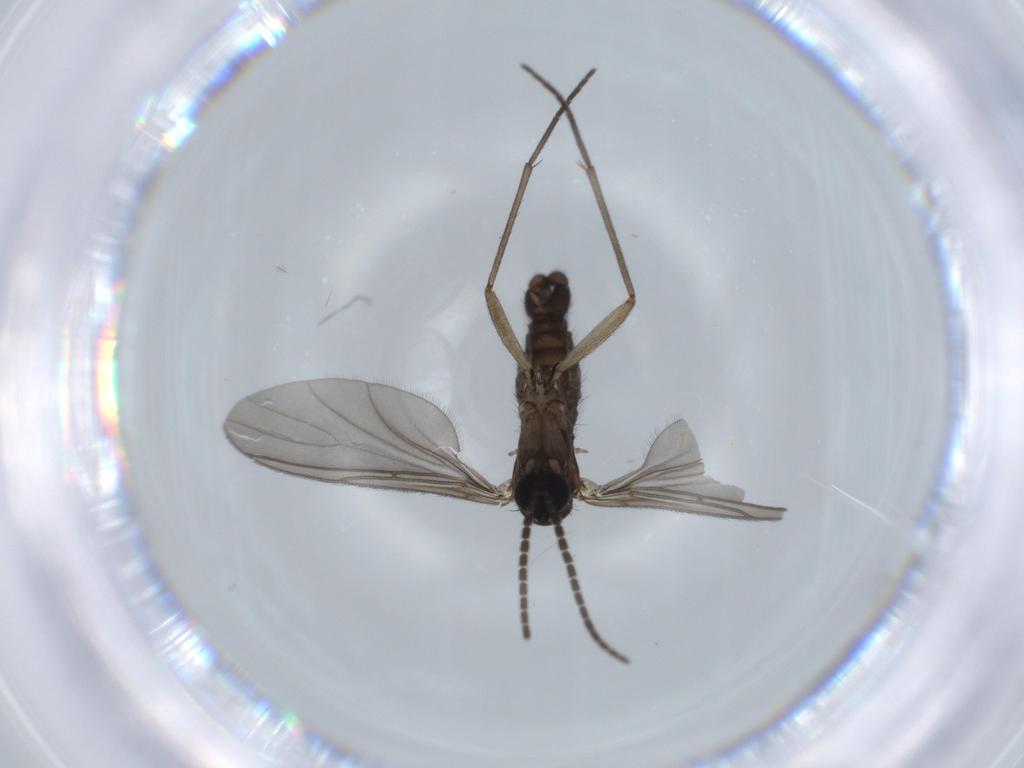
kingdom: Animalia
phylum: Arthropoda
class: Insecta
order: Diptera
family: Sciaridae
